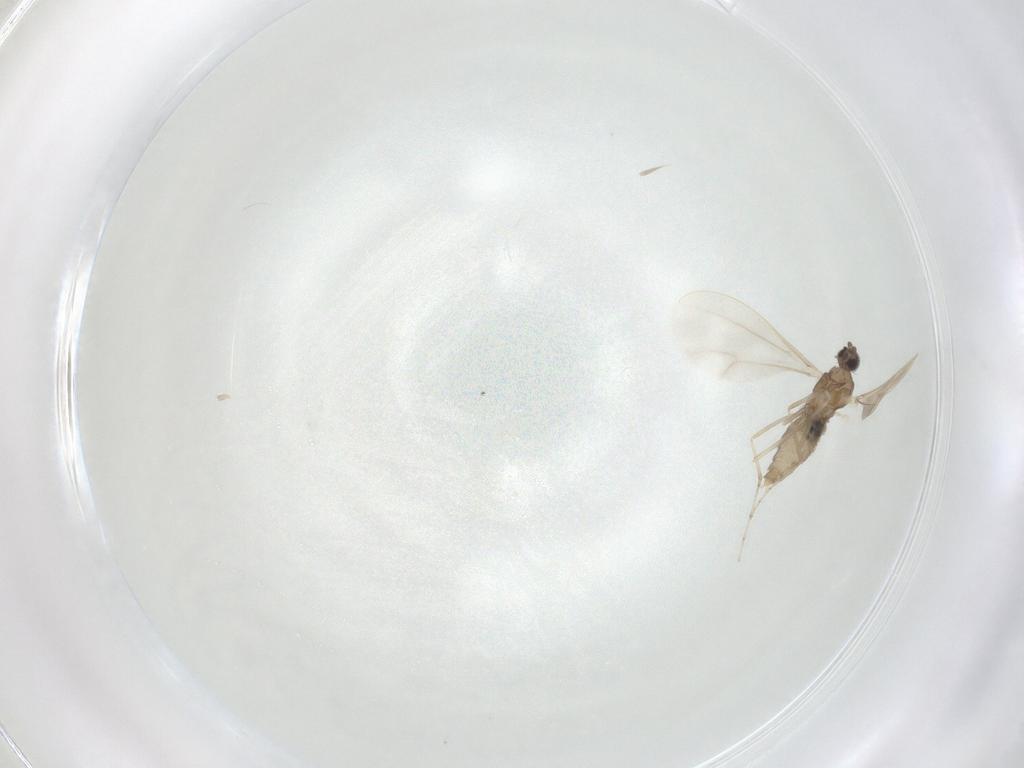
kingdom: Animalia
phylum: Arthropoda
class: Insecta
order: Diptera
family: Cecidomyiidae
